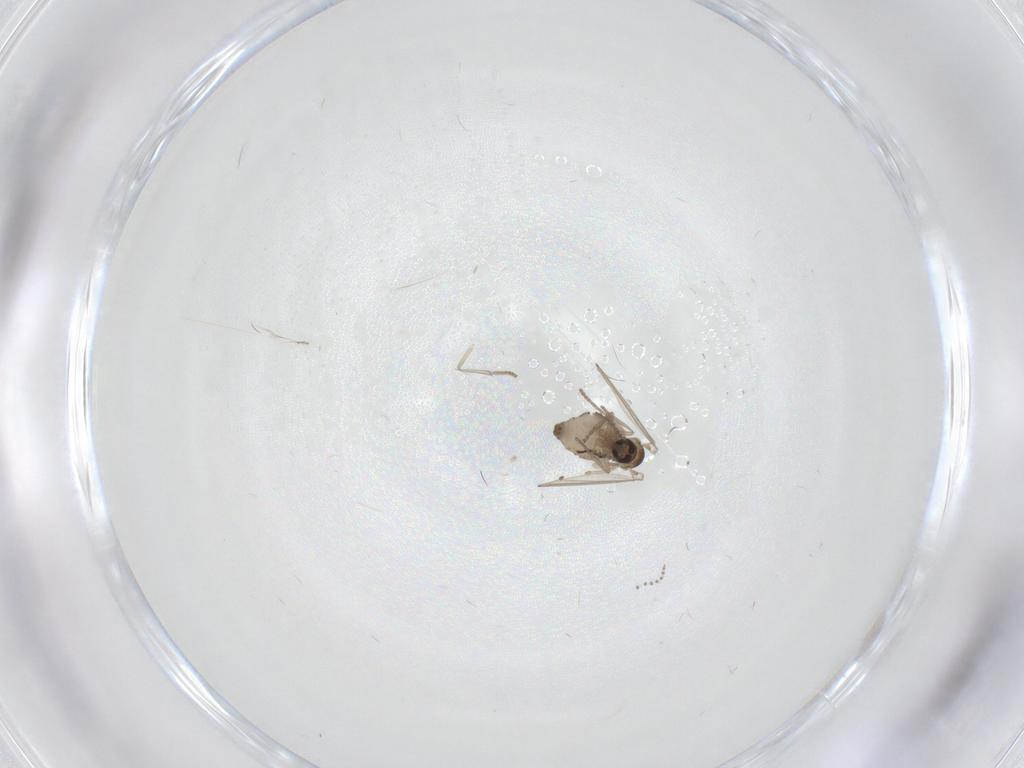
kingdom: Animalia
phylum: Arthropoda
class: Insecta
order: Diptera
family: Psychodidae
